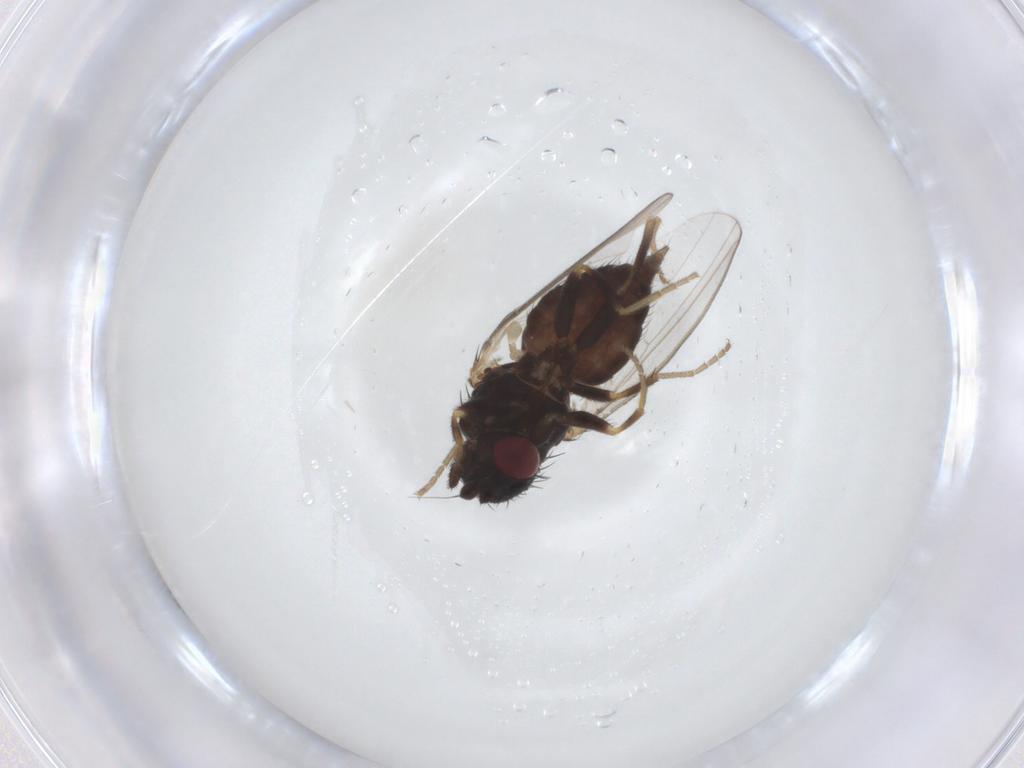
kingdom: Animalia
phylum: Arthropoda
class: Insecta
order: Diptera
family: Milichiidae
